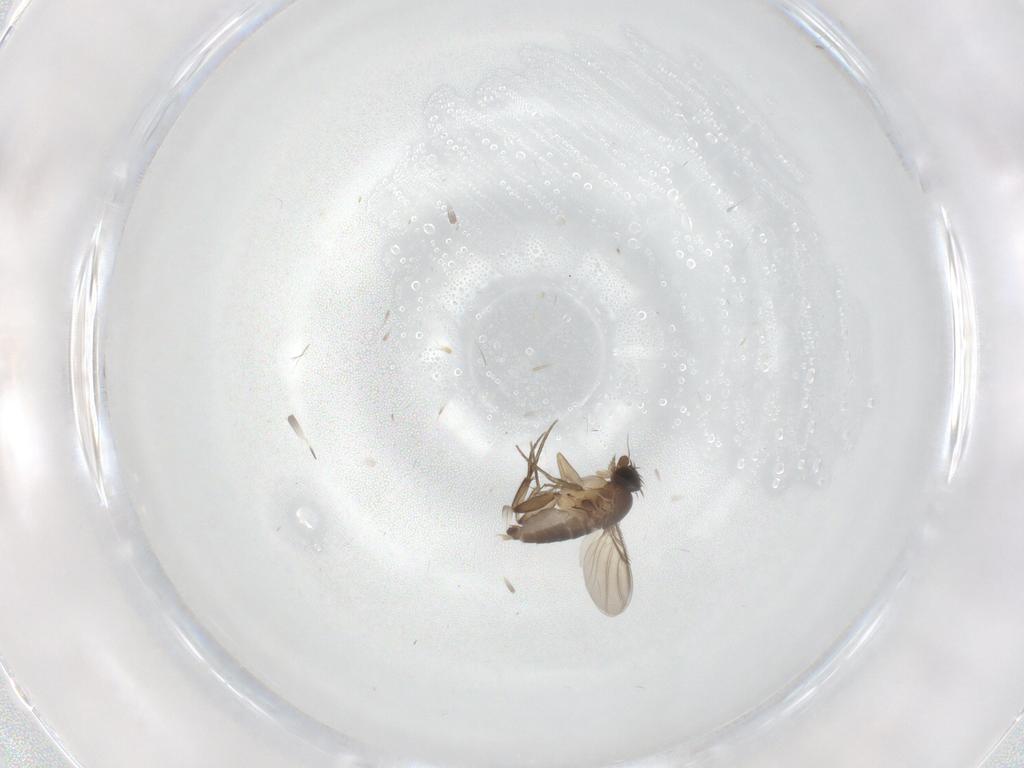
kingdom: Animalia
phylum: Arthropoda
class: Insecta
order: Diptera
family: Phoridae
